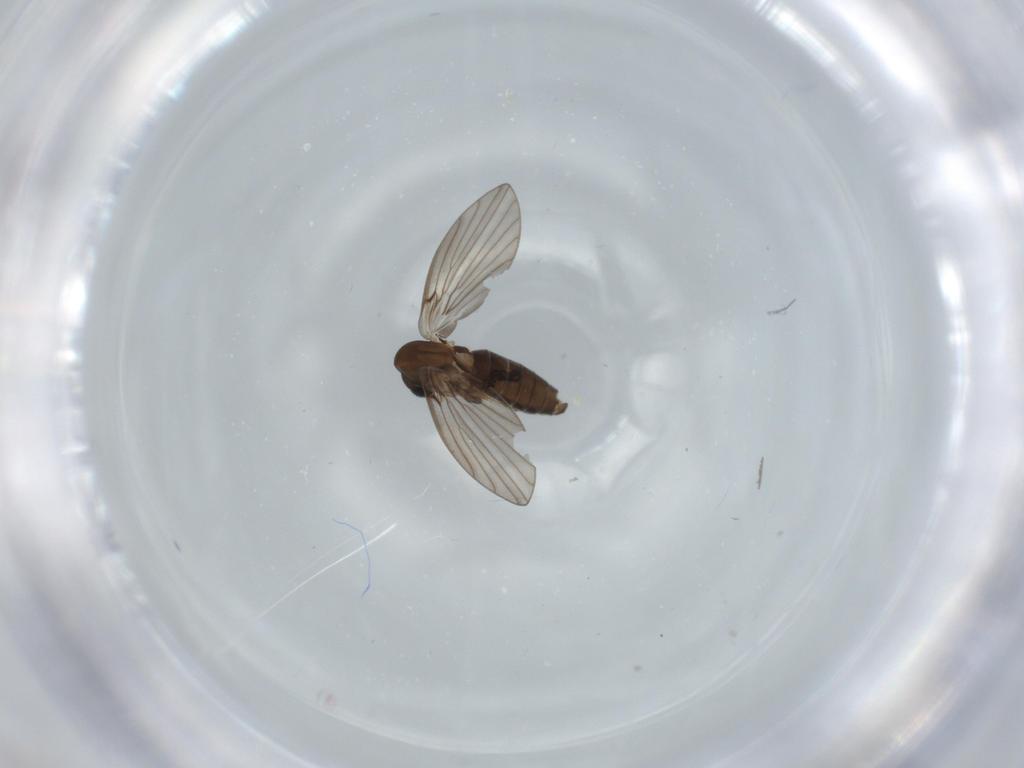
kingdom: Animalia
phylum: Arthropoda
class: Insecta
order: Diptera
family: Psychodidae
